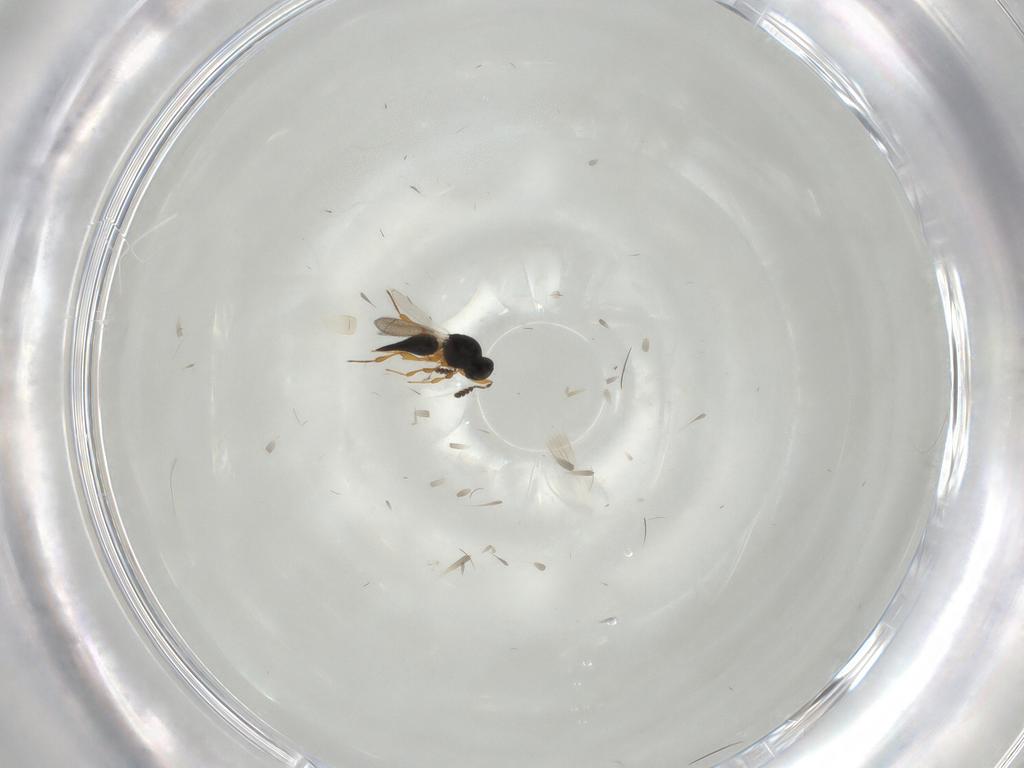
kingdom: Animalia
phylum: Arthropoda
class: Insecta
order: Hymenoptera
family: Platygastridae
